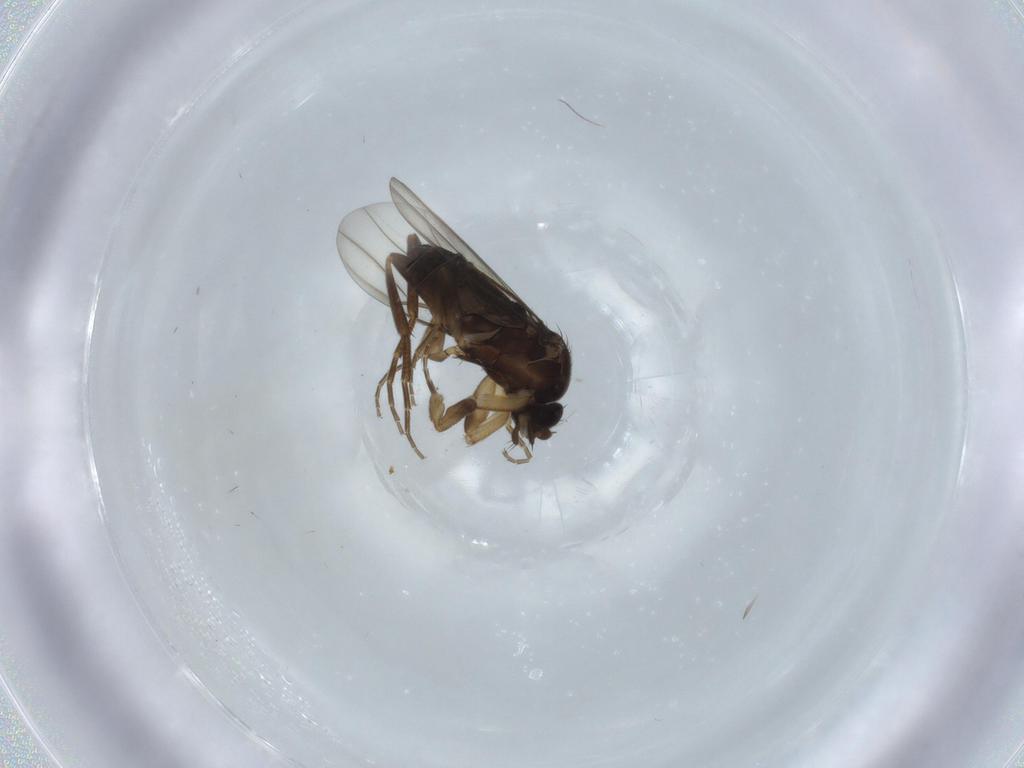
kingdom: Animalia
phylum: Arthropoda
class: Insecta
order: Diptera
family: Phoridae
